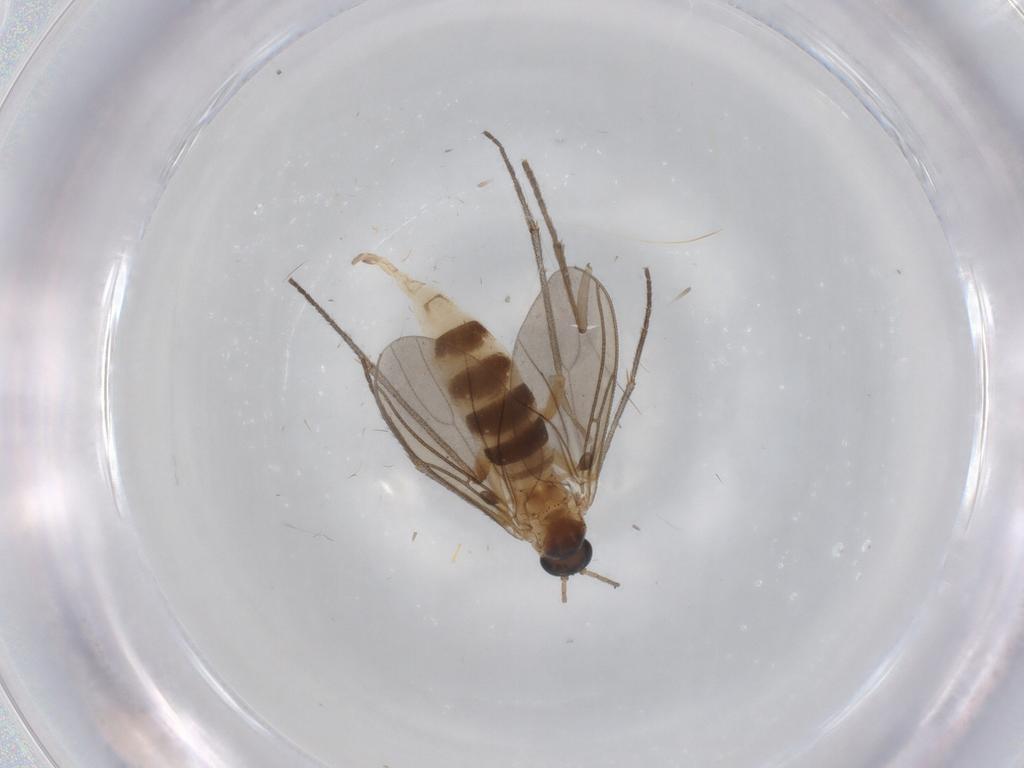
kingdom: Animalia
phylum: Arthropoda
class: Insecta
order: Diptera
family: Sciaridae
